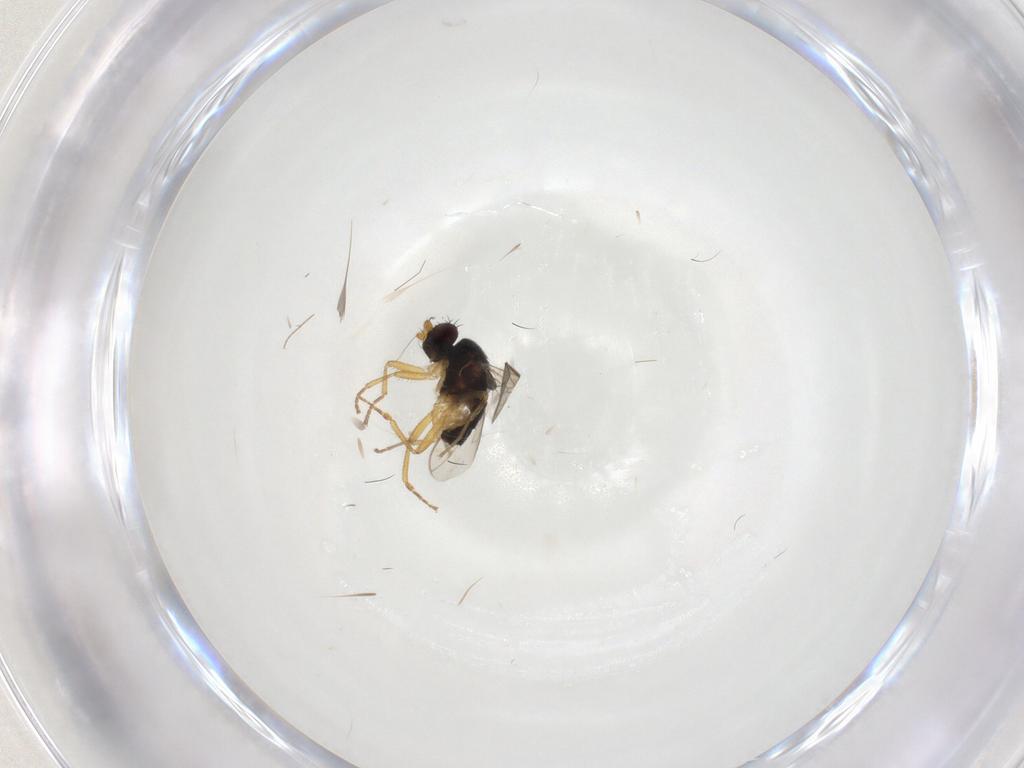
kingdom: Animalia
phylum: Arthropoda
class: Insecta
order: Diptera
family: Sphaeroceridae
